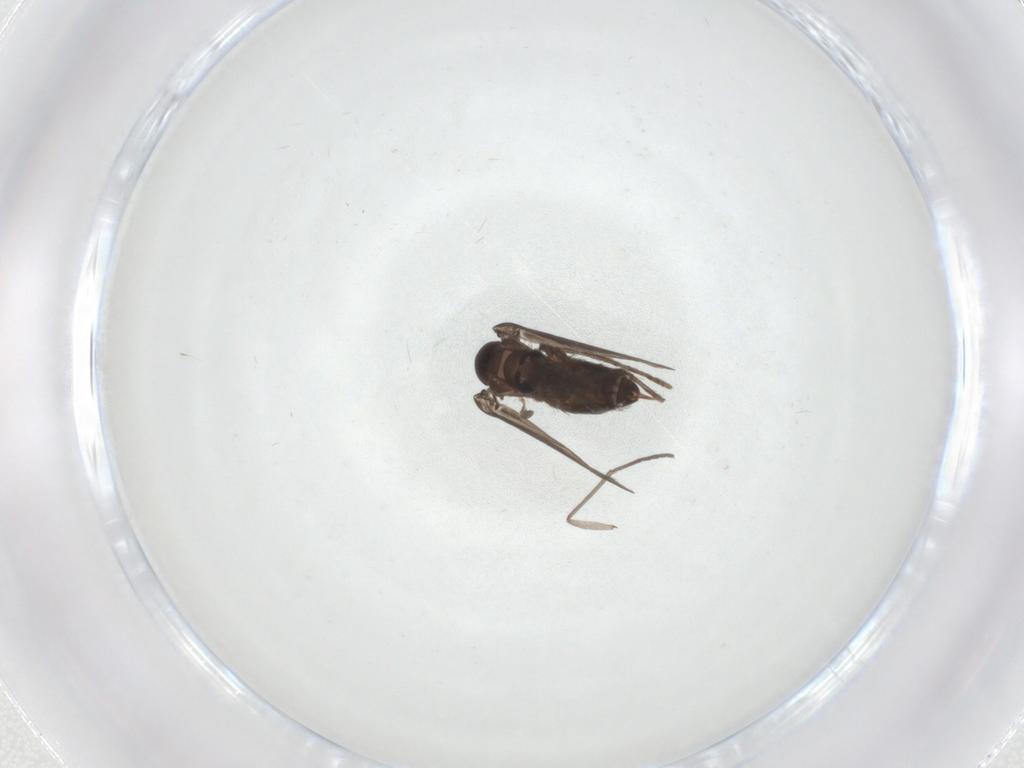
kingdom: Animalia
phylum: Arthropoda
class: Insecta
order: Diptera
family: Psychodidae
